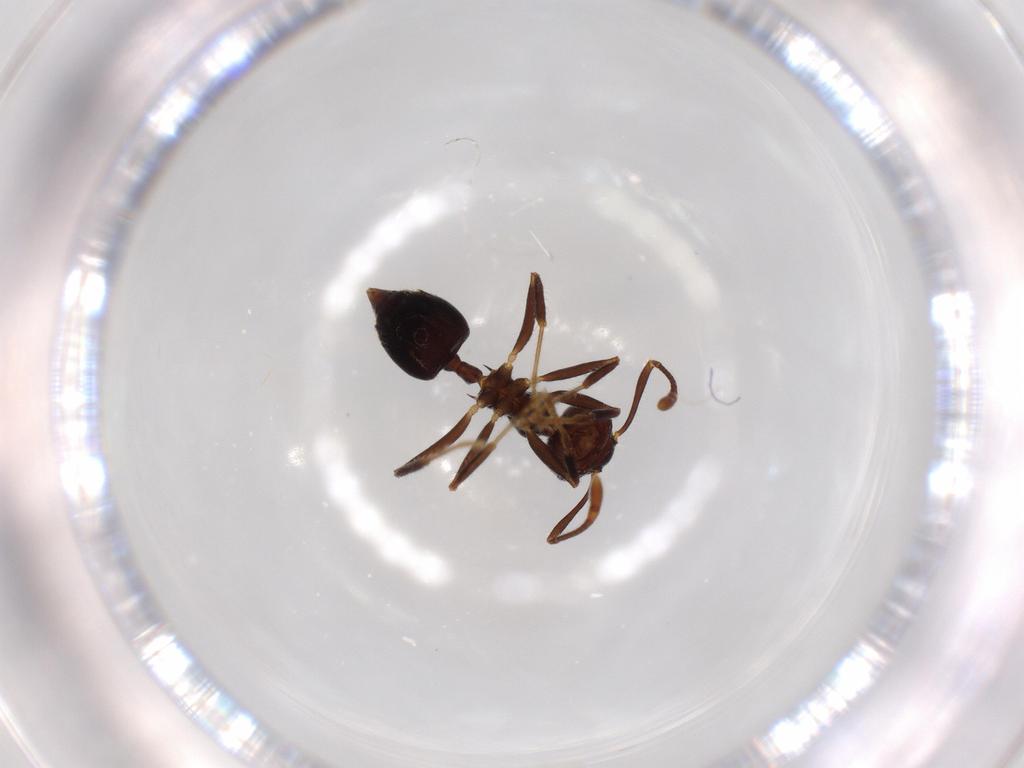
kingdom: Animalia
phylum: Arthropoda
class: Insecta
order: Hymenoptera
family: Formicidae
